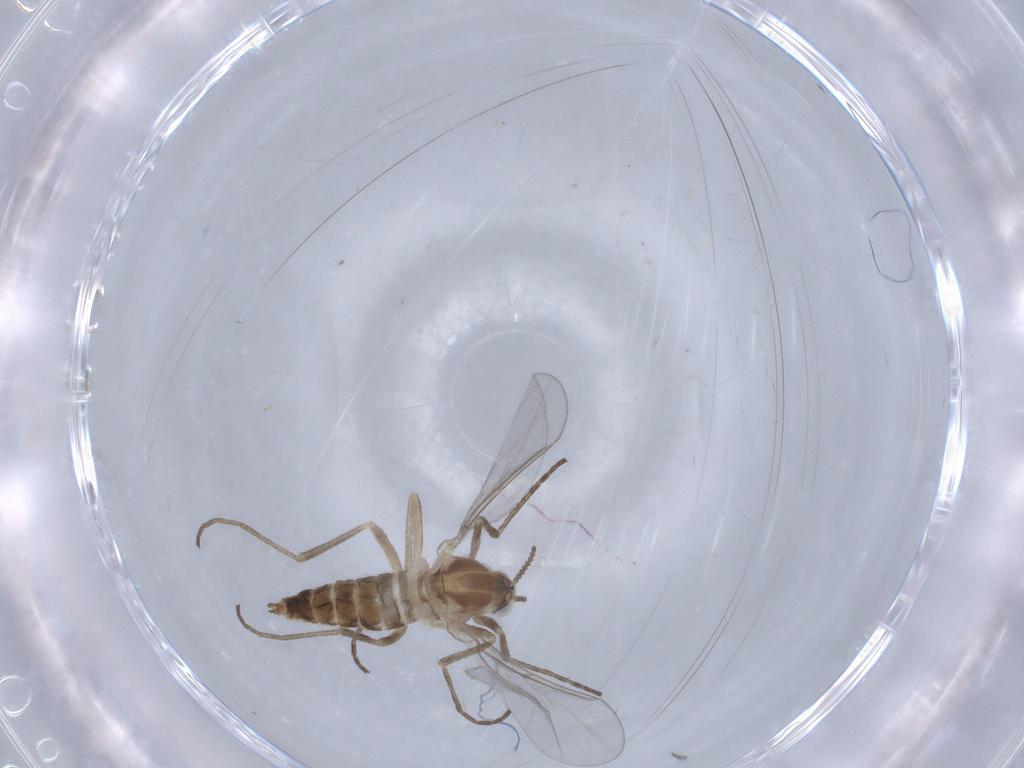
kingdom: Animalia
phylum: Arthropoda
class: Insecta
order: Diptera
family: Cecidomyiidae
